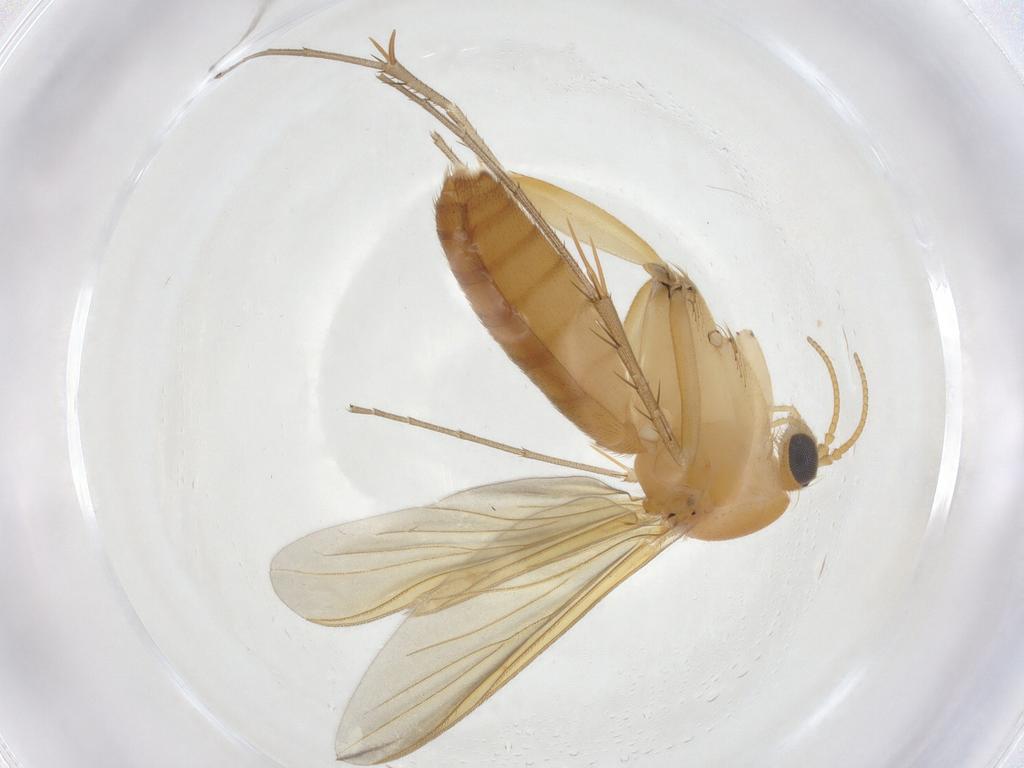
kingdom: Animalia
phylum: Arthropoda
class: Insecta
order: Diptera
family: Mycetophilidae
